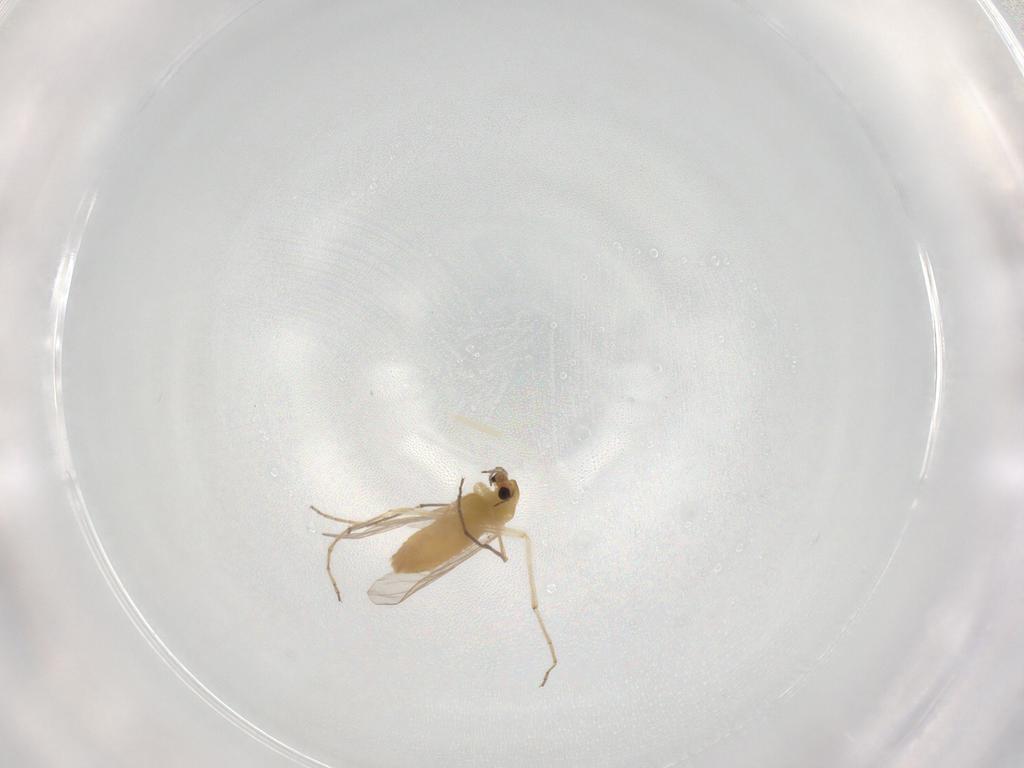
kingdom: Animalia
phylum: Arthropoda
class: Insecta
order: Diptera
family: Chironomidae
